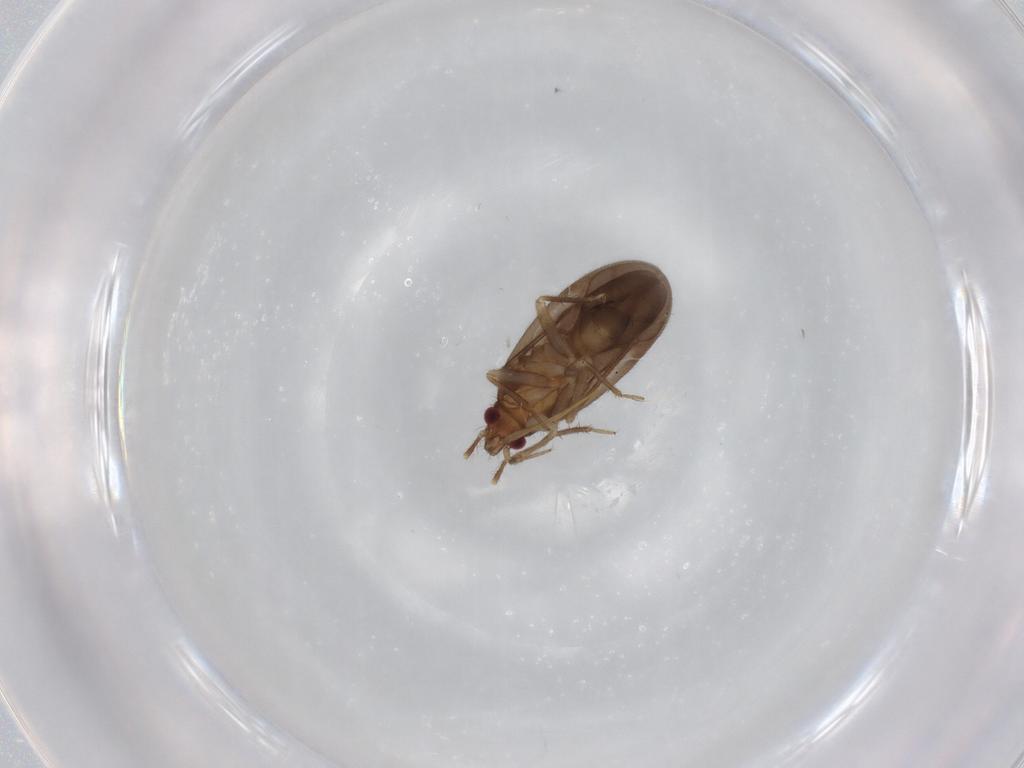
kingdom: Animalia
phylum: Arthropoda
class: Insecta
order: Hemiptera
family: Ceratocombidae
